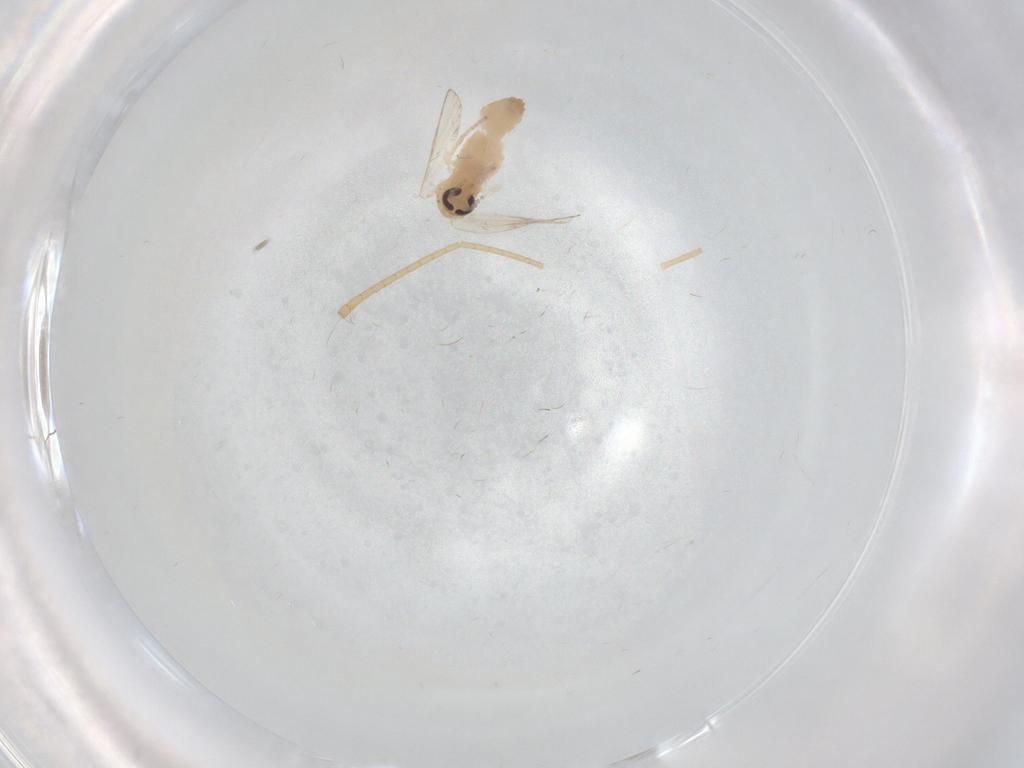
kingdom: Animalia
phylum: Arthropoda
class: Insecta
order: Diptera
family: Psychodidae
